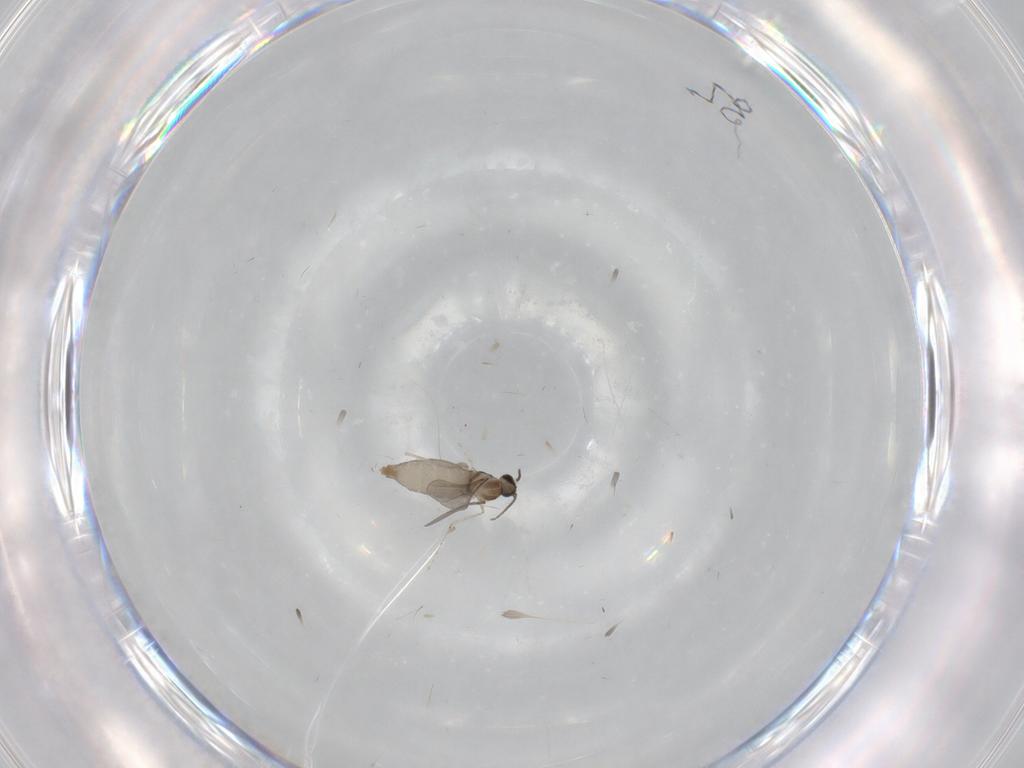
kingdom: Animalia
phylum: Arthropoda
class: Insecta
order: Diptera
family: Cecidomyiidae
